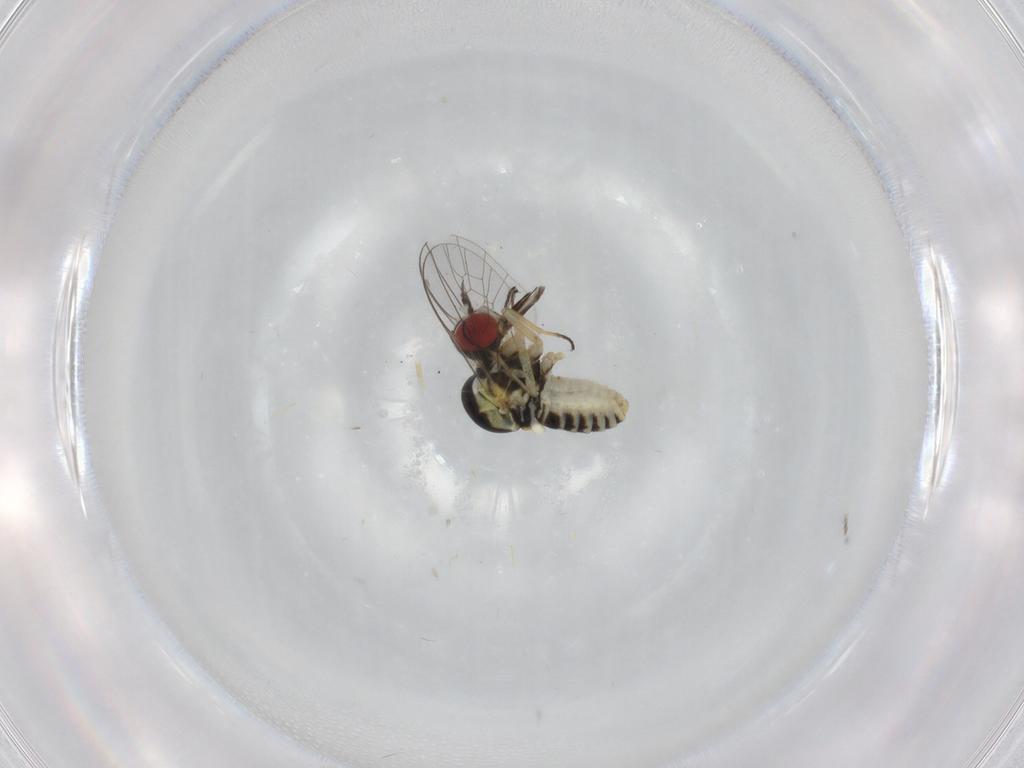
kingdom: Animalia
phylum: Arthropoda
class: Insecta
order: Diptera
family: Mythicomyiidae
